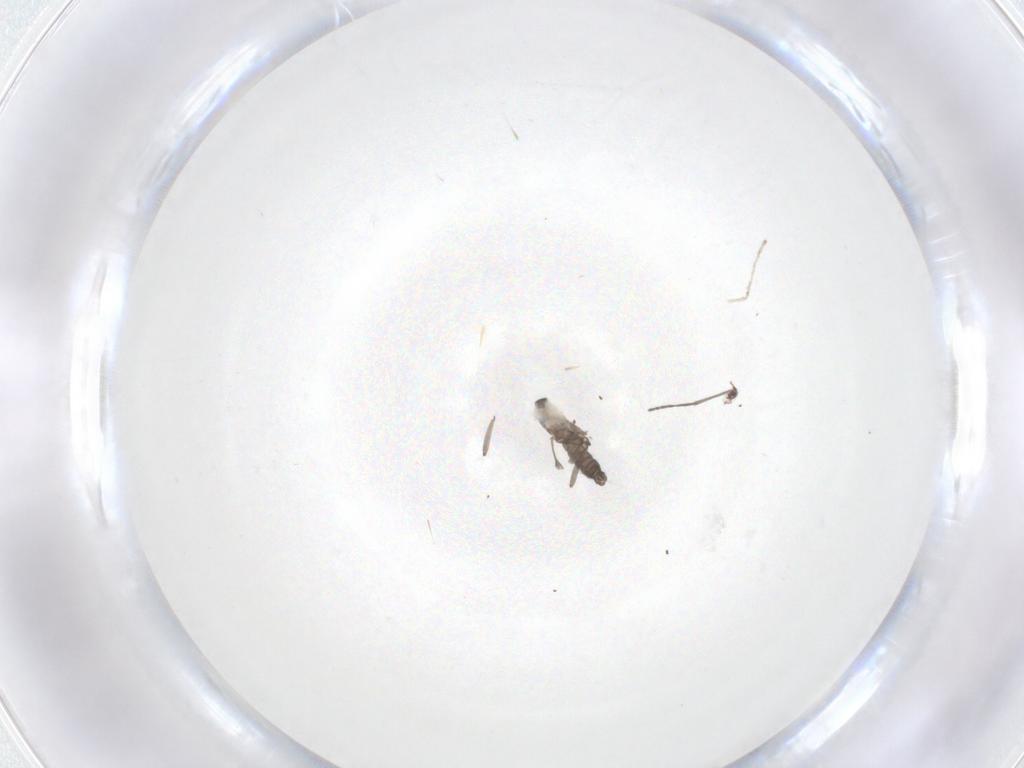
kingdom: Animalia
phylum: Arthropoda
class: Insecta
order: Diptera
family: Sciaridae
